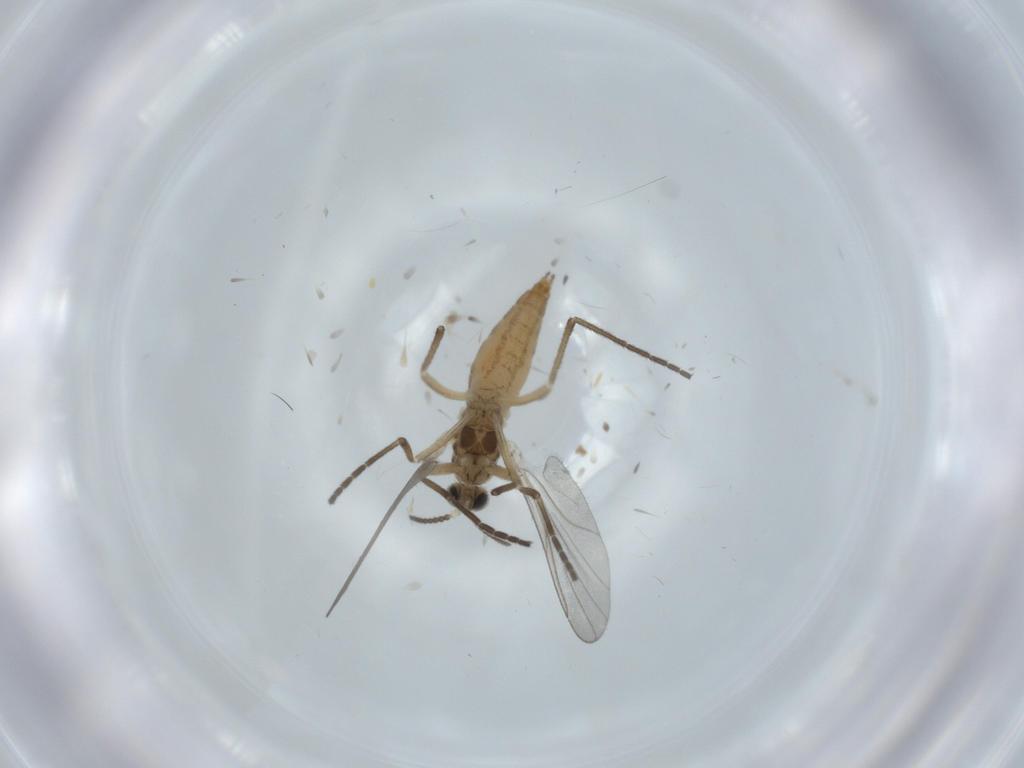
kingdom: Animalia
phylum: Arthropoda
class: Insecta
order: Diptera
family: Cecidomyiidae
